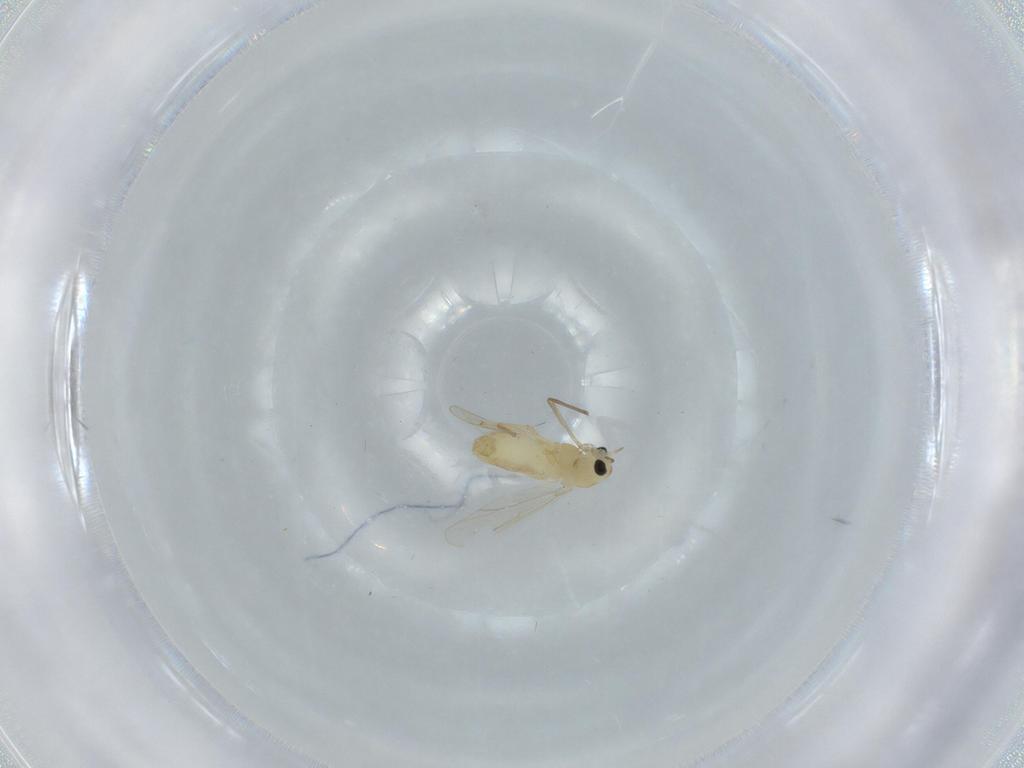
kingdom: Animalia
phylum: Arthropoda
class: Insecta
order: Diptera
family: Chironomidae
